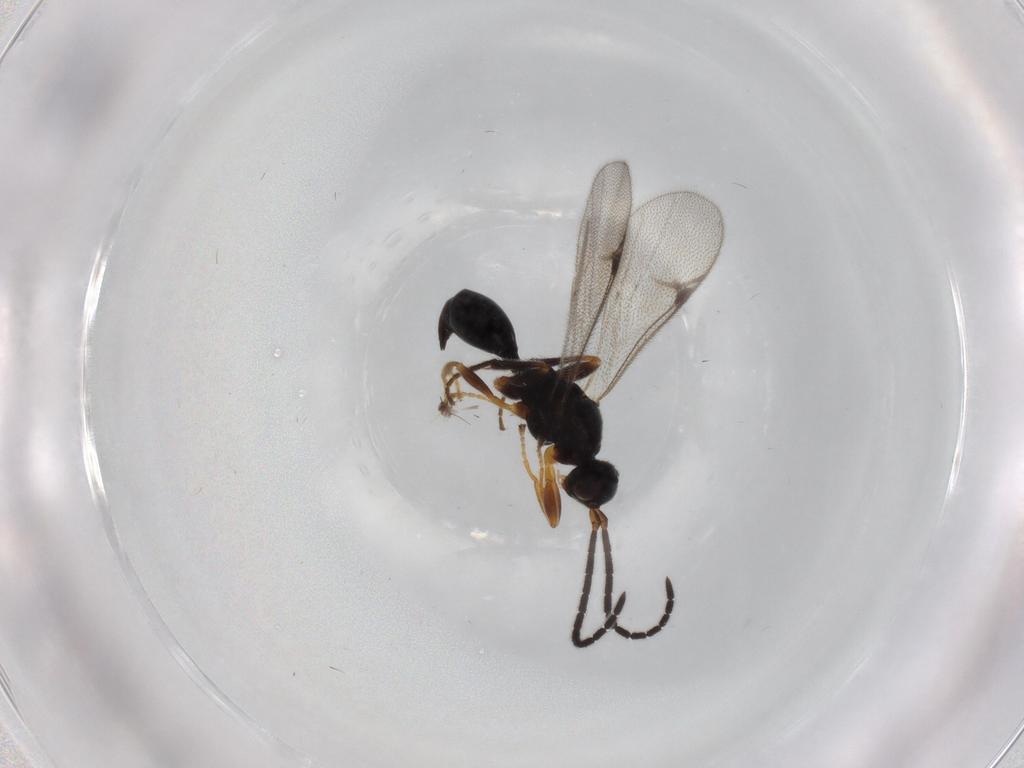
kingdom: Animalia
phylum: Arthropoda
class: Insecta
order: Hymenoptera
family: Dryinidae
